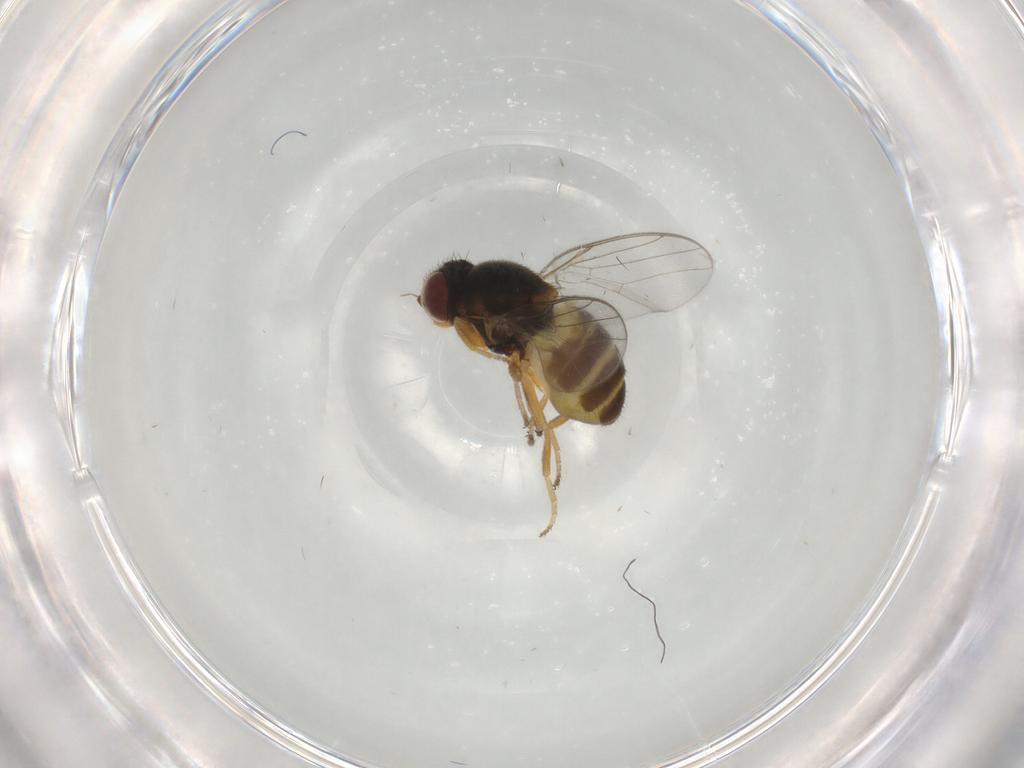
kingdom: Animalia
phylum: Arthropoda
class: Insecta
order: Diptera
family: Chloropidae
